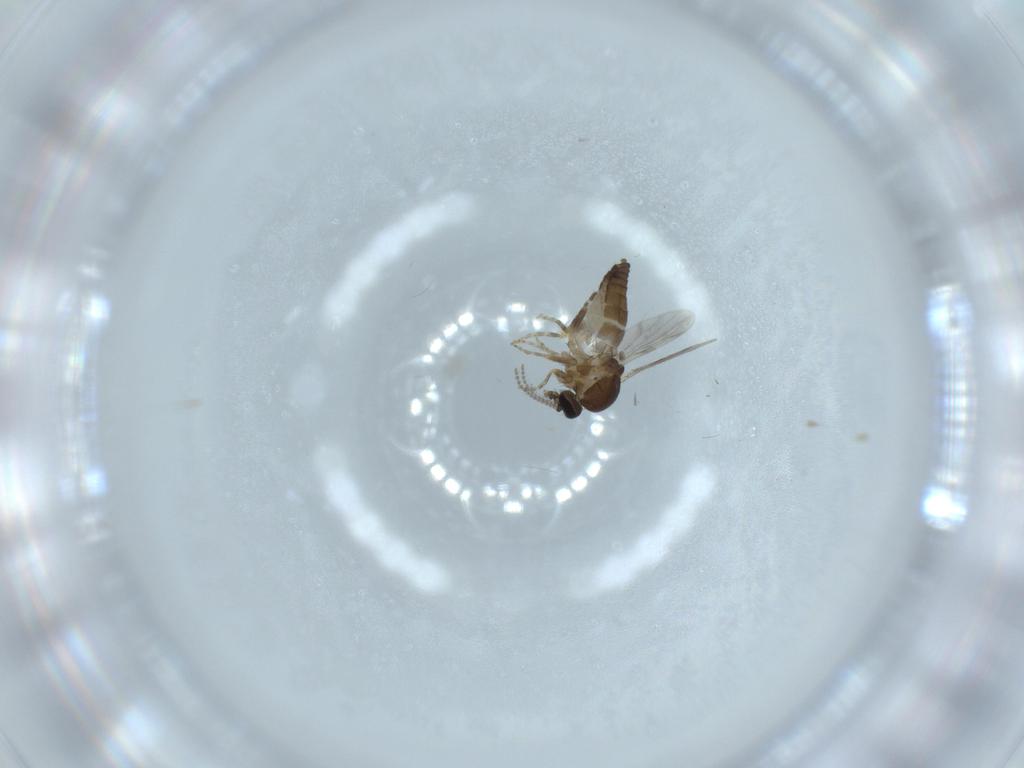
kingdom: Animalia
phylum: Arthropoda
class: Insecta
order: Diptera
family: Ceratopogonidae
